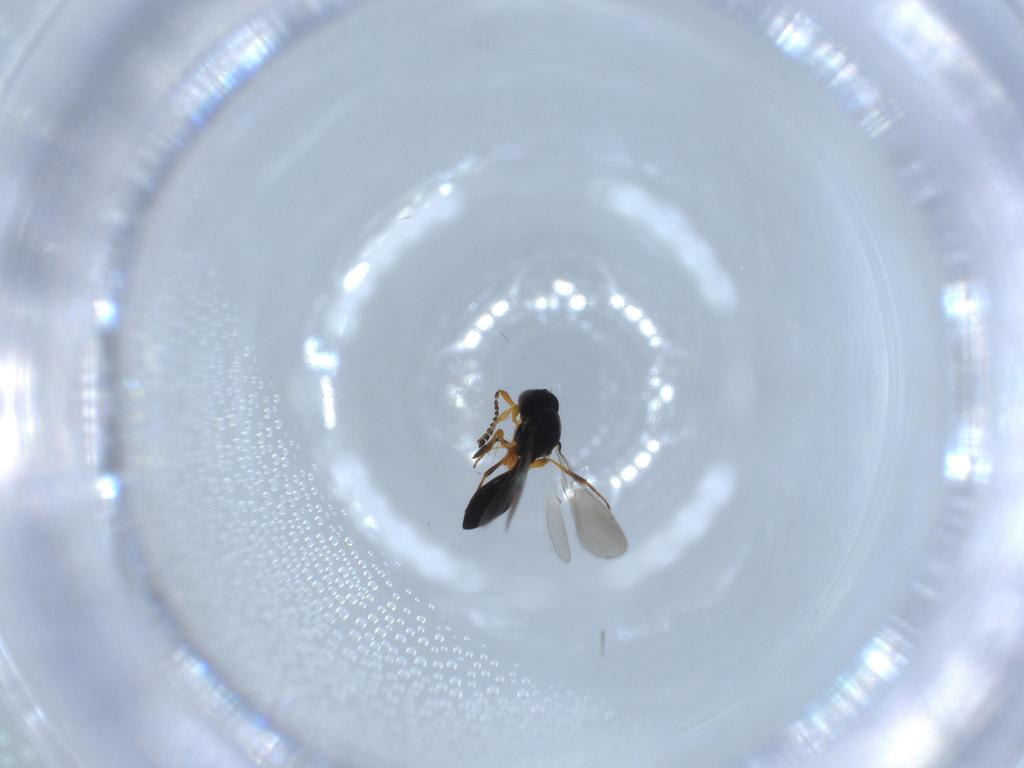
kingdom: Animalia
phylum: Arthropoda
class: Insecta
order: Hymenoptera
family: Platygastridae
